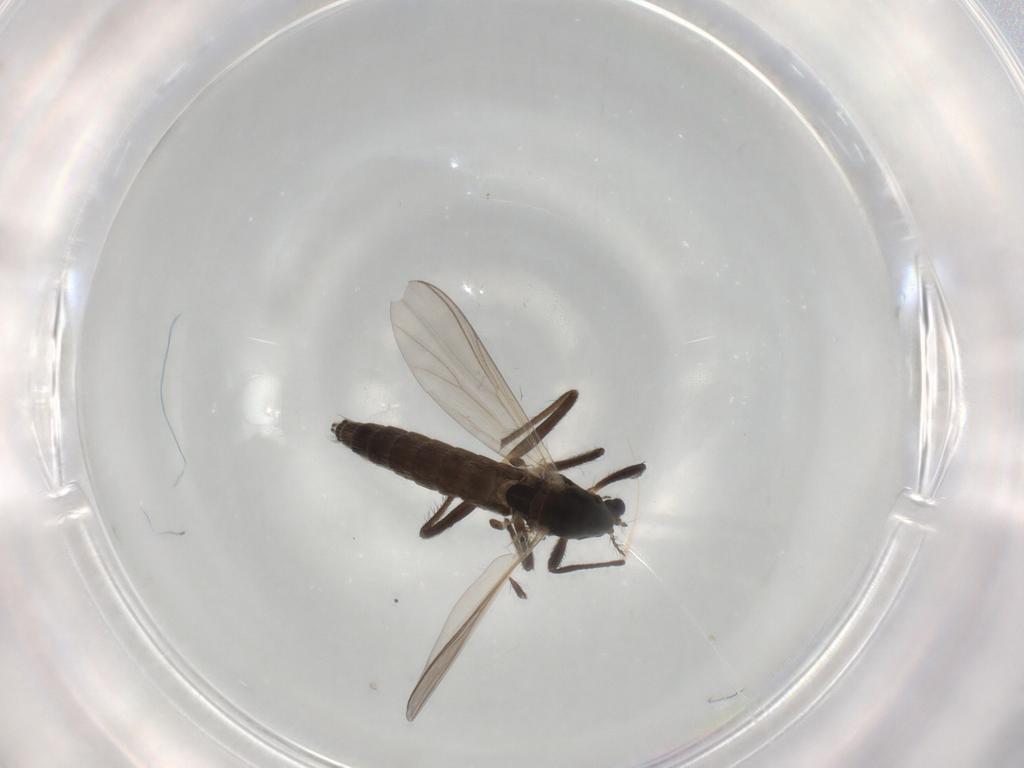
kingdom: Animalia
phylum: Arthropoda
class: Insecta
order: Diptera
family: Chironomidae
